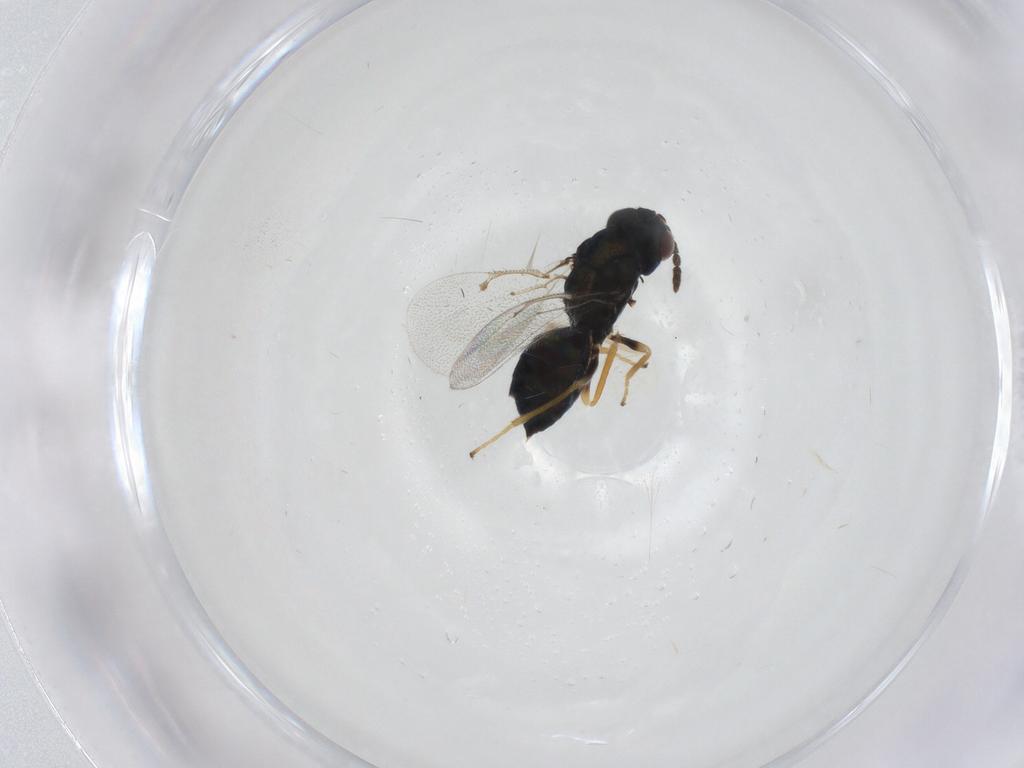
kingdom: Animalia
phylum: Arthropoda
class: Insecta
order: Hymenoptera
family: Eulophidae
